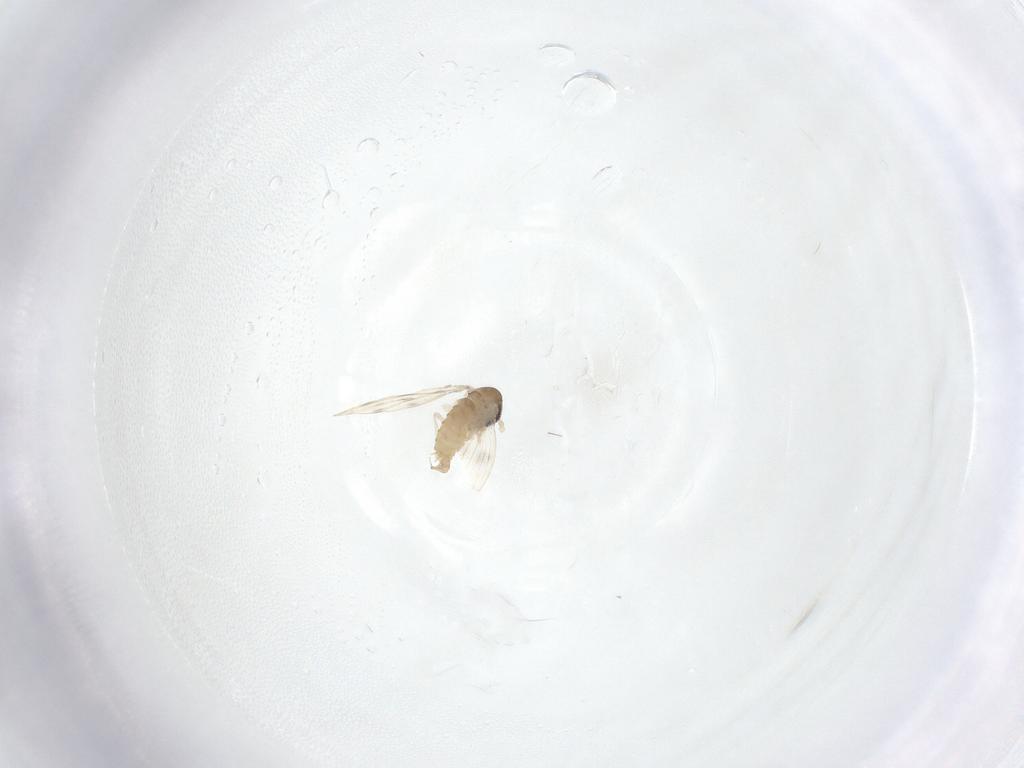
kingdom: Animalia
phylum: Arthropoda
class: Insecta
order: Diptera
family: Psychodidae
